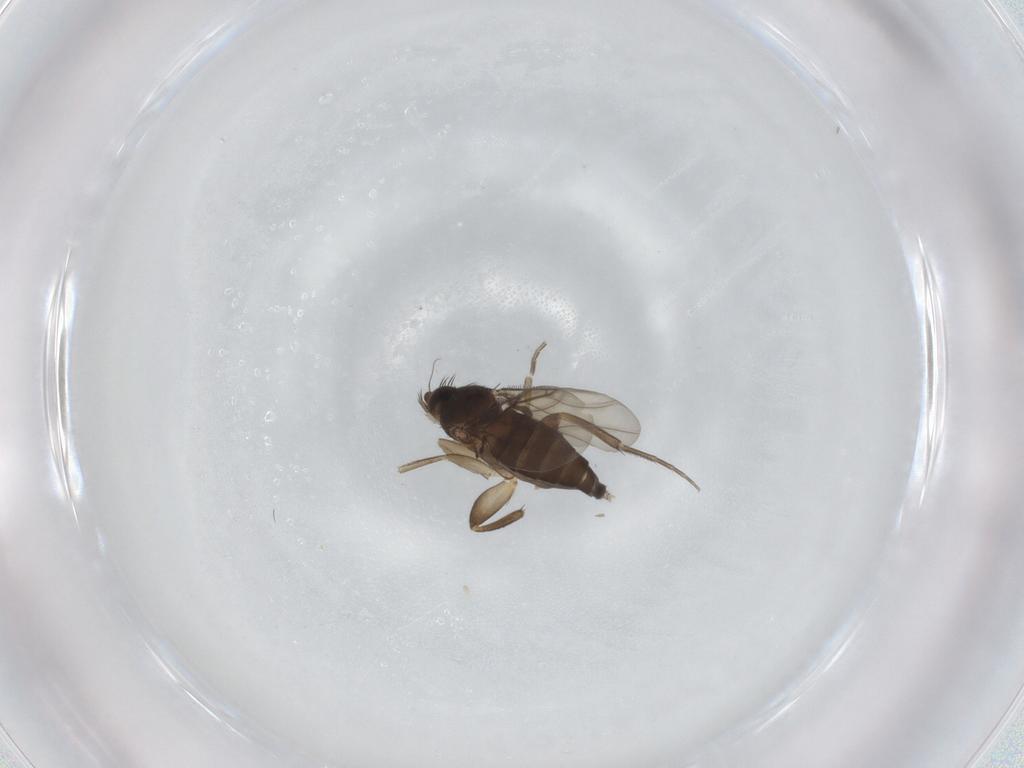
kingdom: Animalia
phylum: Arthropoda
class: Insecta
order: Diptera
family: Phoridae
